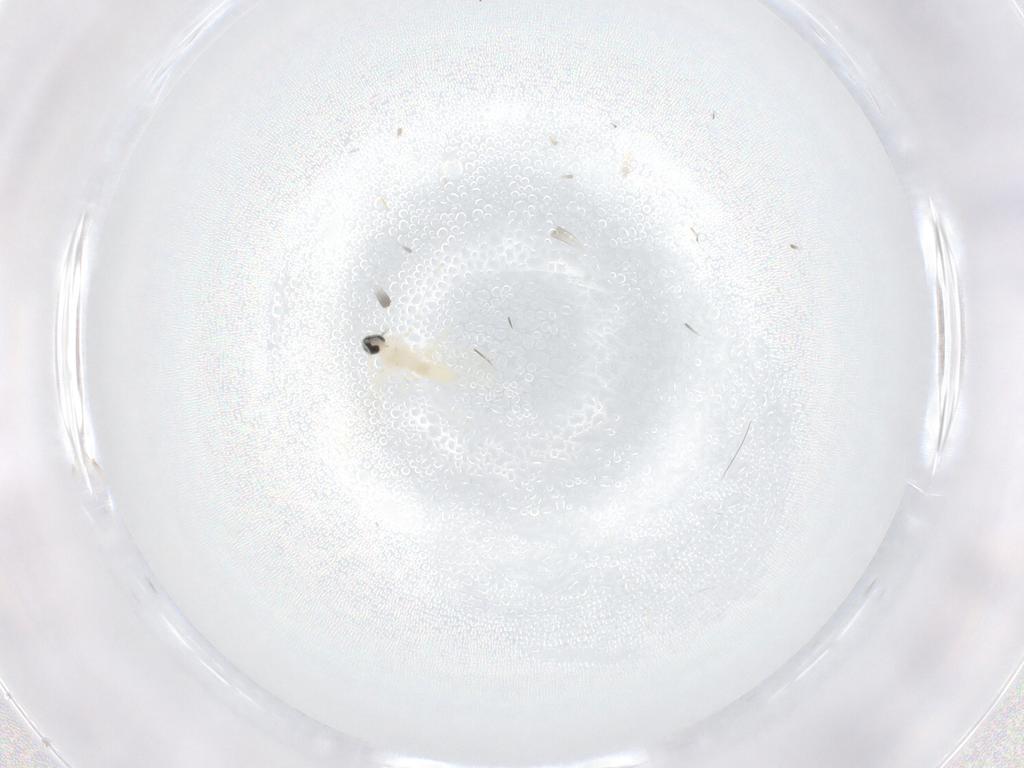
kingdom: Animalia
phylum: Arthropoda
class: Insecta
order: Diptera
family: Cecidomyiidae
